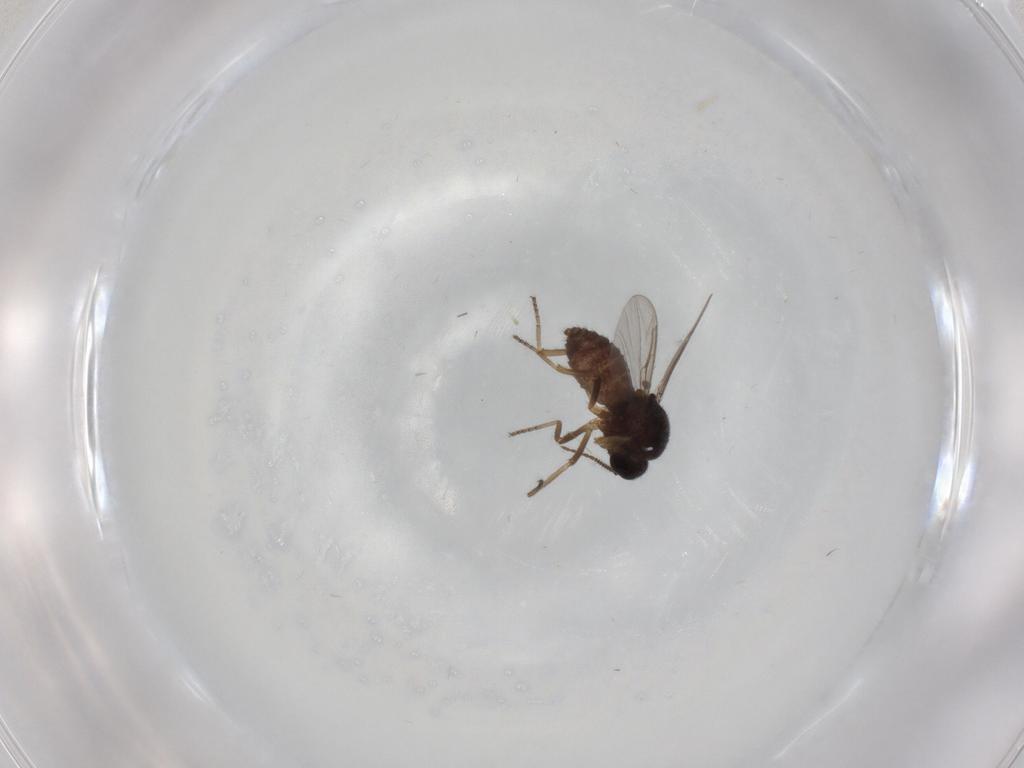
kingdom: Animalia
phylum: Arthropoda
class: Insecta
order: Diptera
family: Ceratopogonidae
